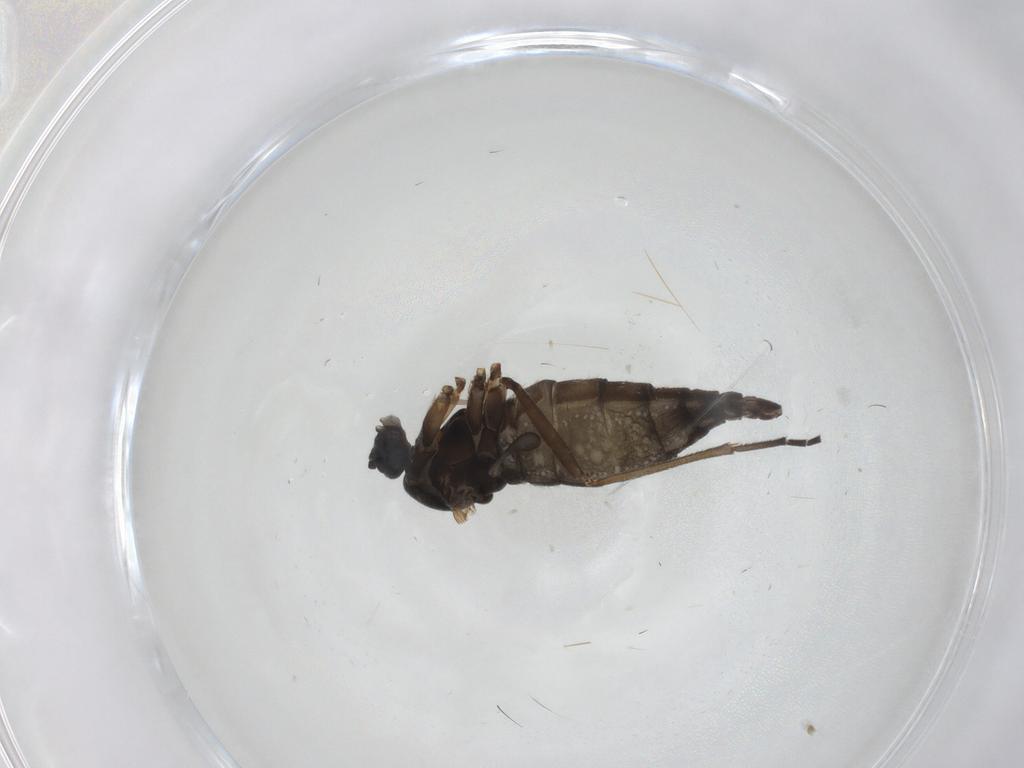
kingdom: Animalia
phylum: Arthropoda
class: Insecta
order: Diptera
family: Sciaridae
